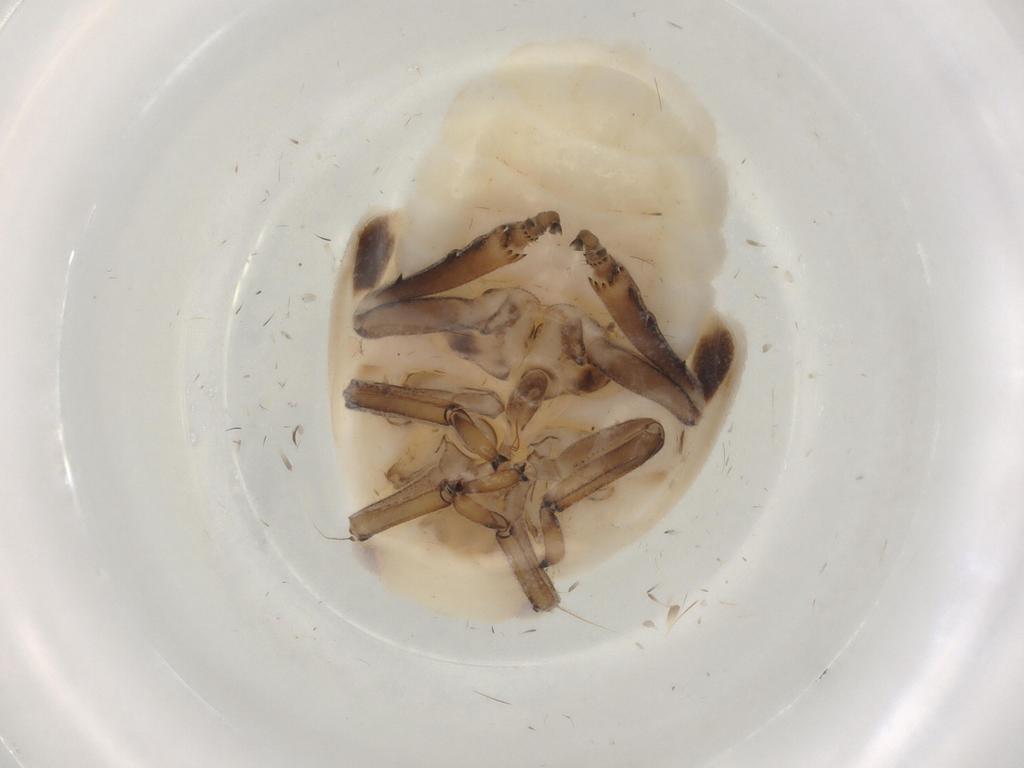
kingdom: Animalia
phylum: Arthropoda
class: Insecta
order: Hemiptera
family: Flatidae
